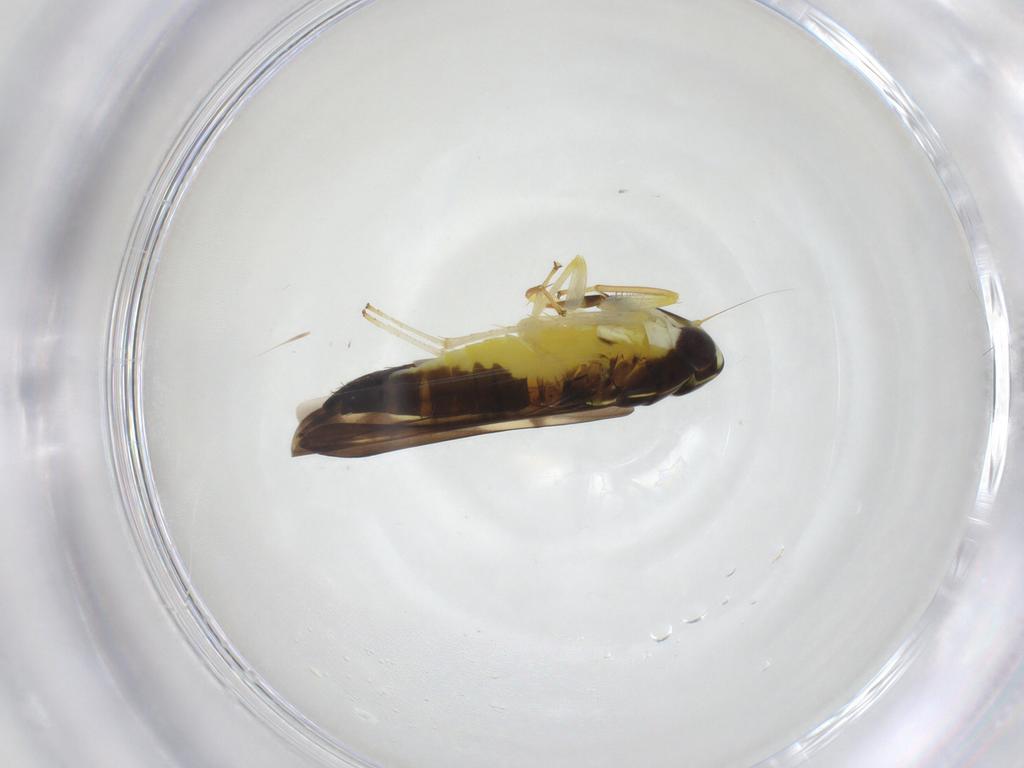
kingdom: Animalia
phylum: Arthropoda
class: Insecta
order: Hemiptera
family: Cicadellidae
